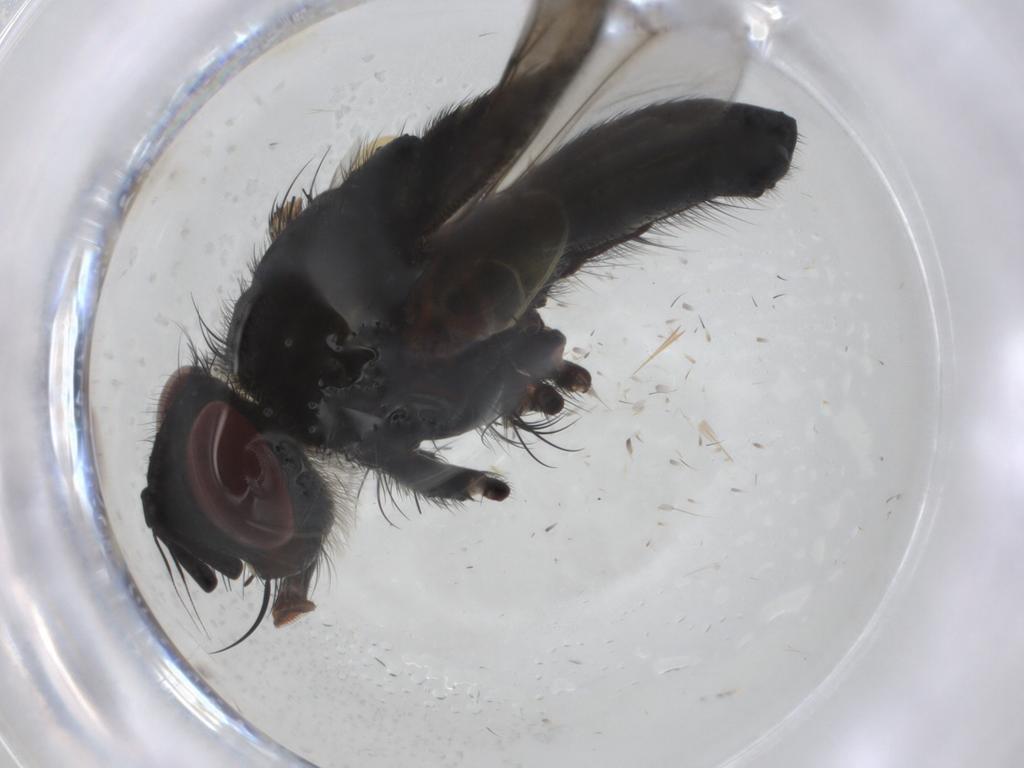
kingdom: Animalia
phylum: Arthropoda
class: Insecta
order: Diptera
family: Tachinidae
